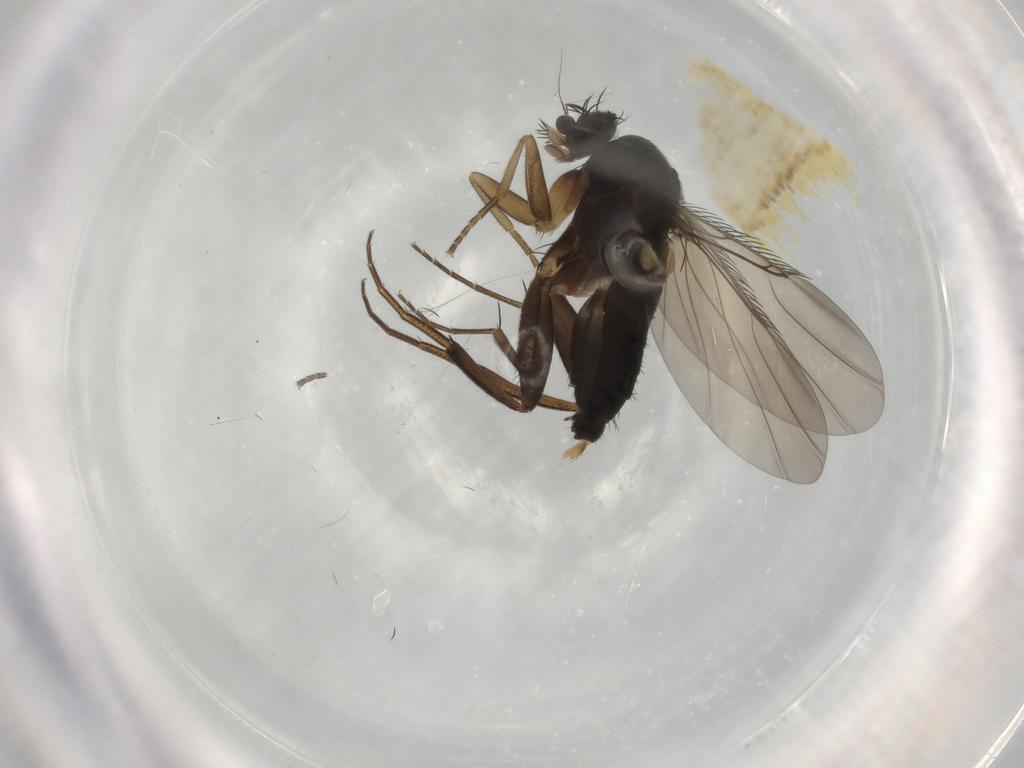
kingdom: Animalia
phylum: Arthropoda
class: Insecta
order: Diptera
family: Phoridae
